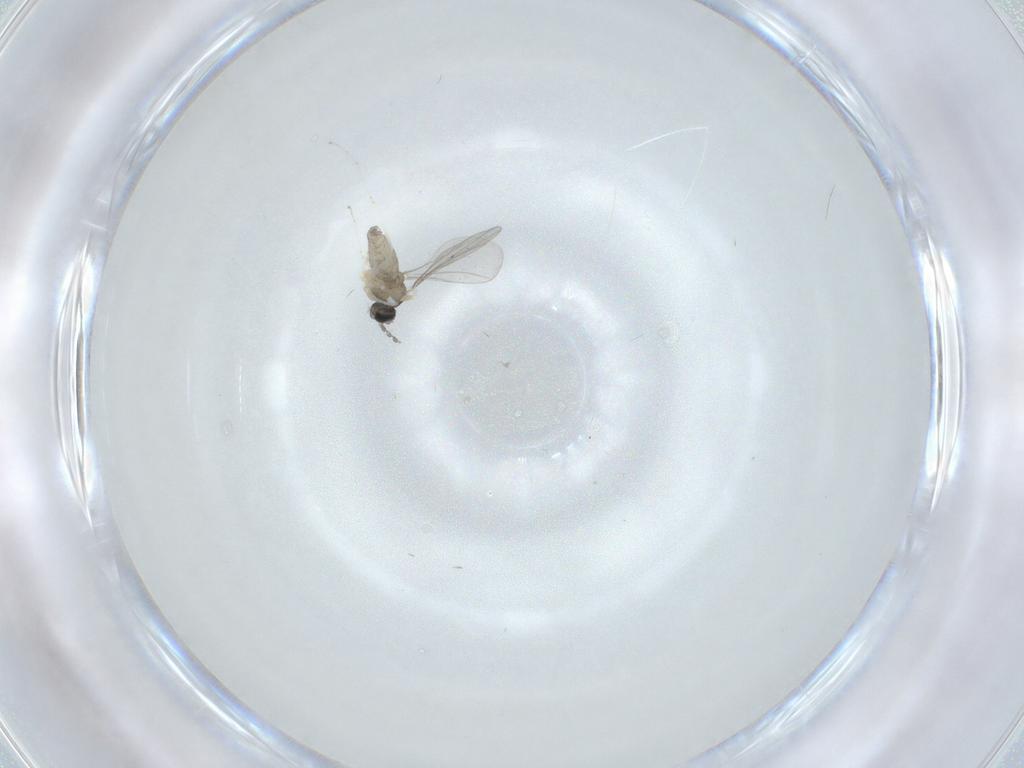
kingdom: Animalia
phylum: Arthropoda
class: Insecta
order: Diptera
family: Cecidomyiidae
